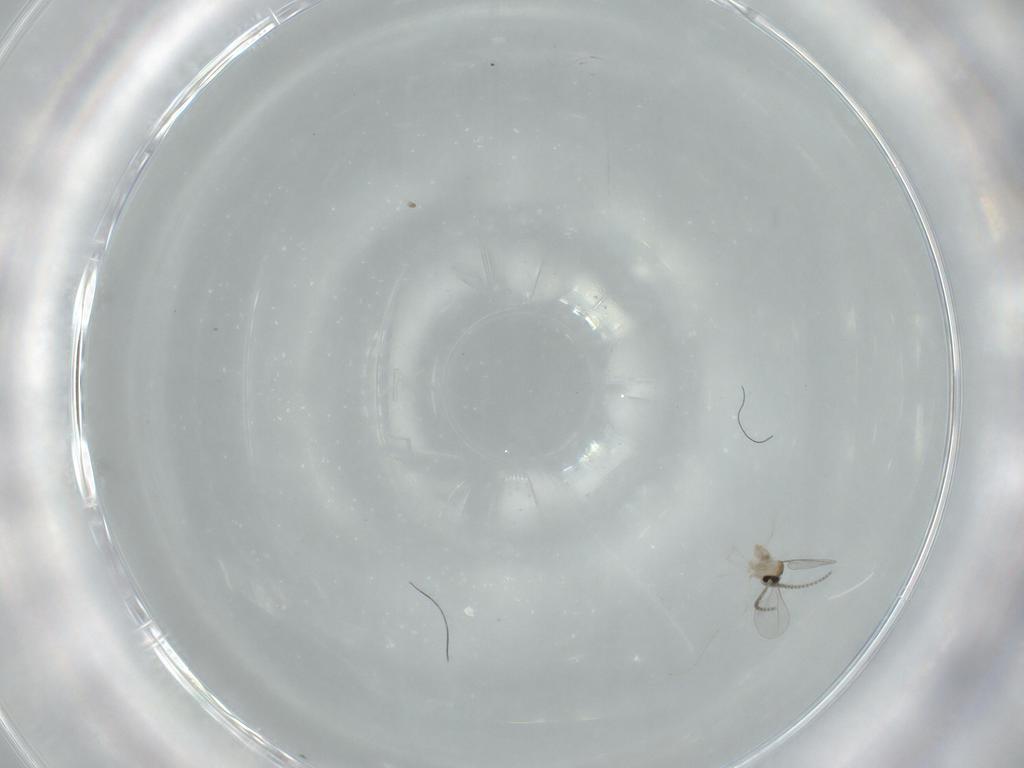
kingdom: Animalia
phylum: Arthropoda
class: Insecta
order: Diptera
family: Cecidomyiidae
